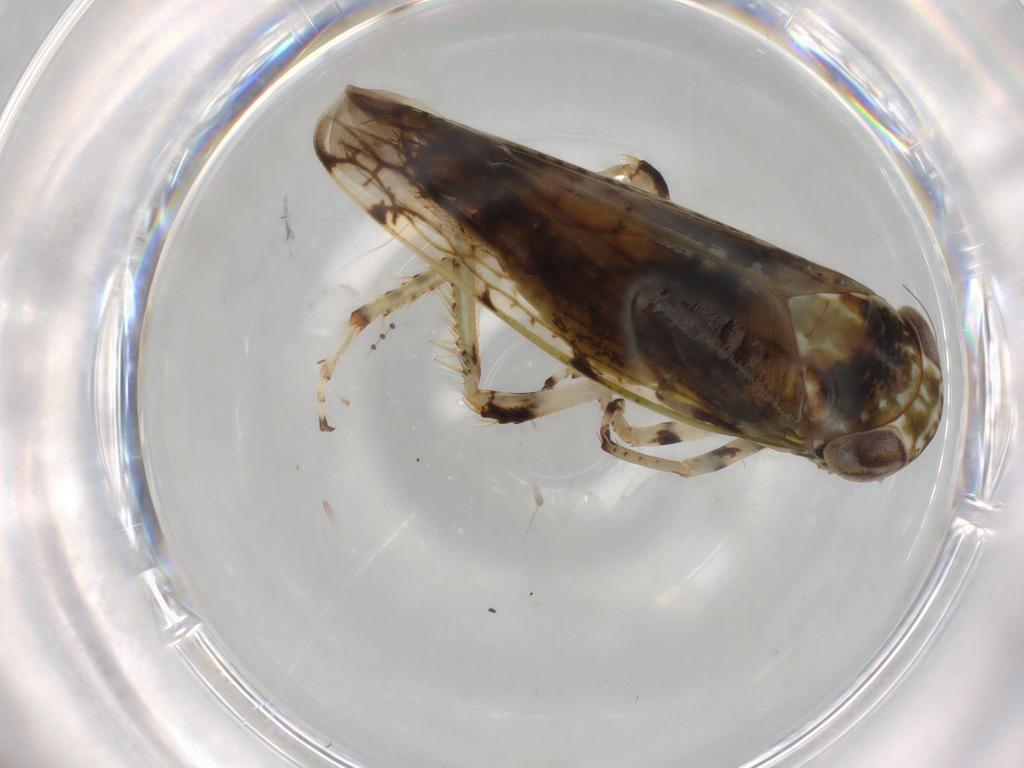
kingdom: Animalia
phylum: Arthropoda
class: Insecta
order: Hemiptera
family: Cicadellidae
